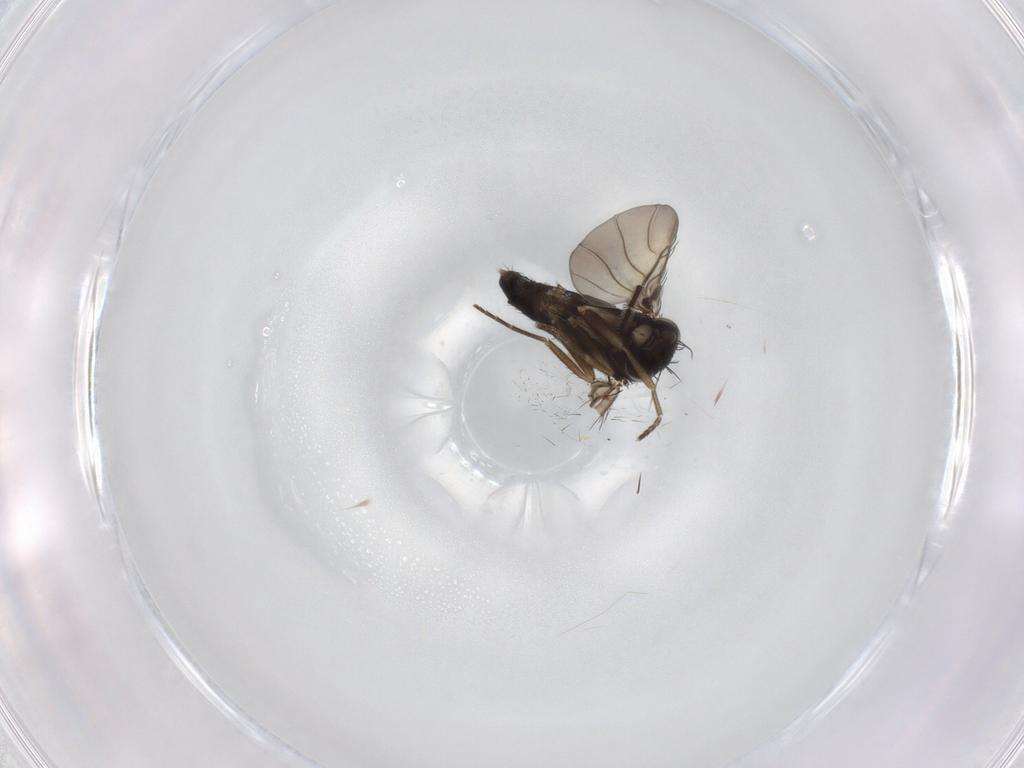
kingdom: Animalia
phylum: Arthropoda
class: Insecta
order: Diptera
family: Phoridae
